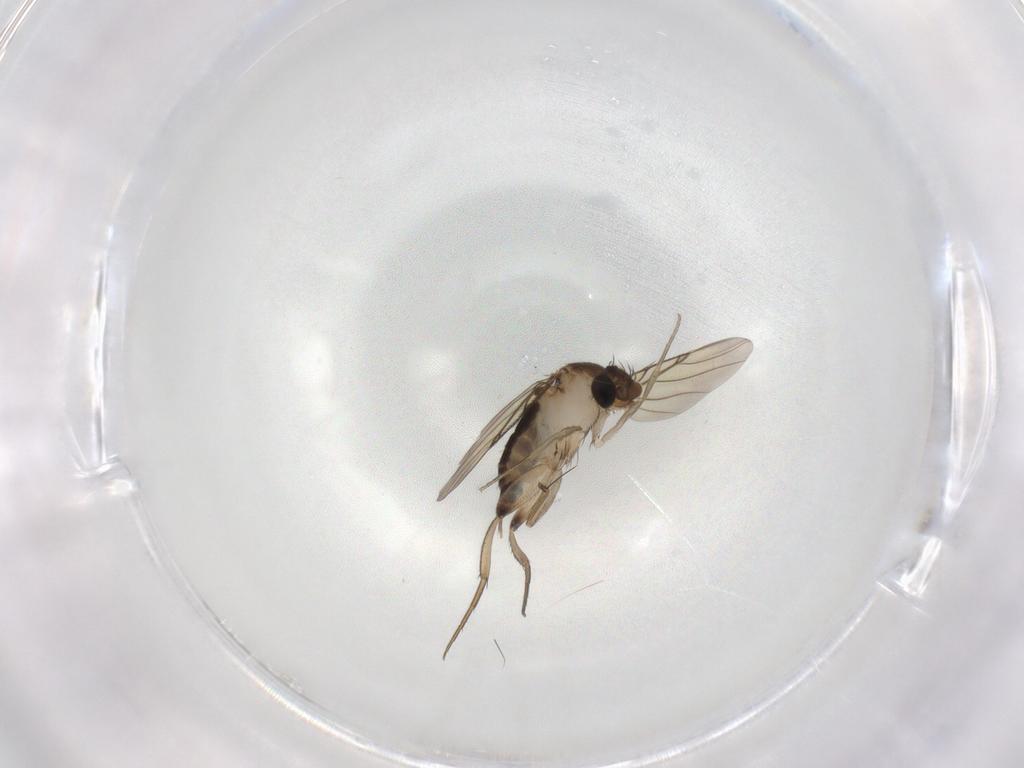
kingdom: Animalia
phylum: Arthropoda
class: Insecta
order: Diptera
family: Phoridae
